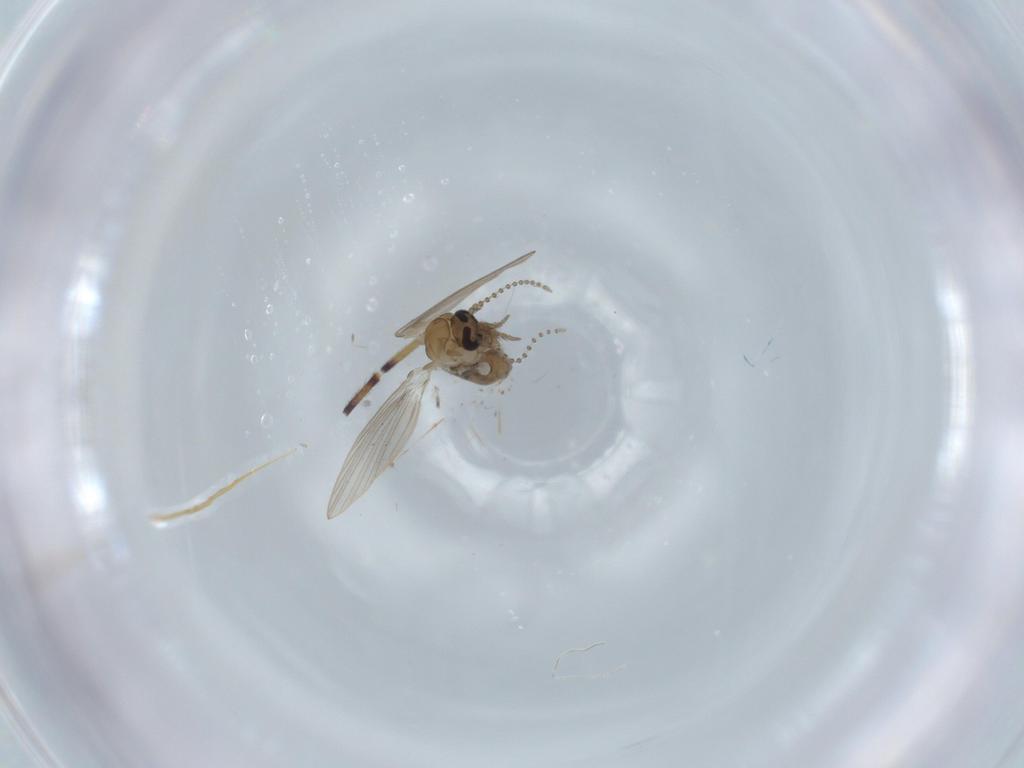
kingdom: Animalia
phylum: Arthropoda
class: Insecta
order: Diptera
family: Psychodidae
